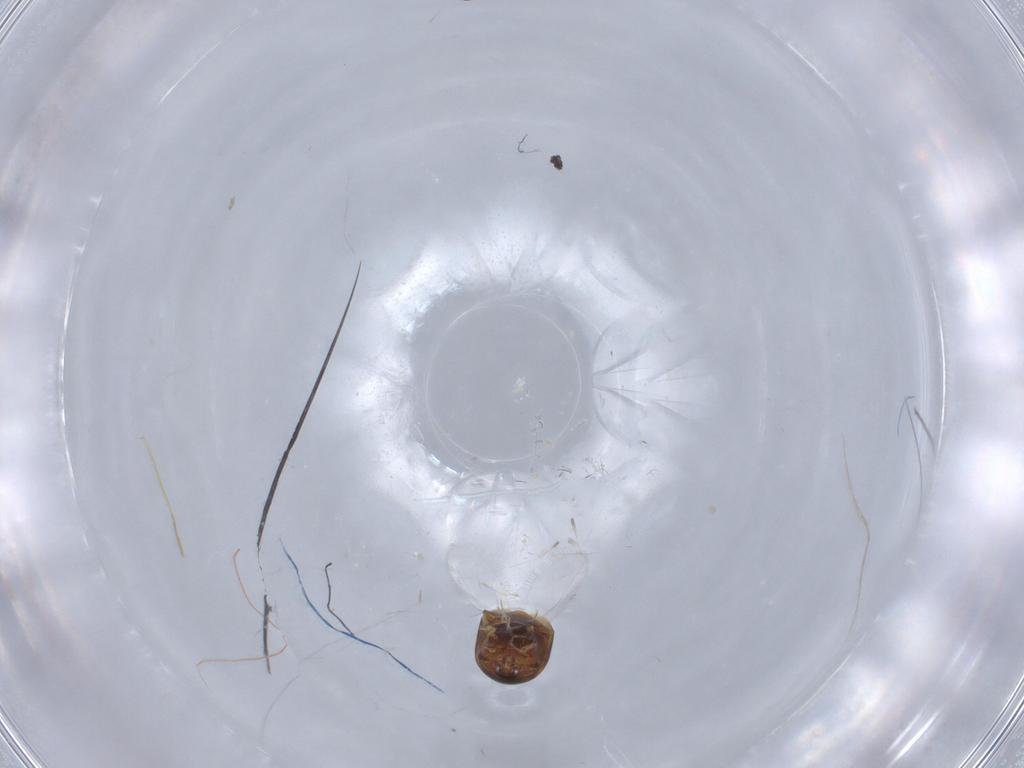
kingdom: Animalia
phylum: Arthropoda
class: Insecta
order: Coleoptera
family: Corylophidae
